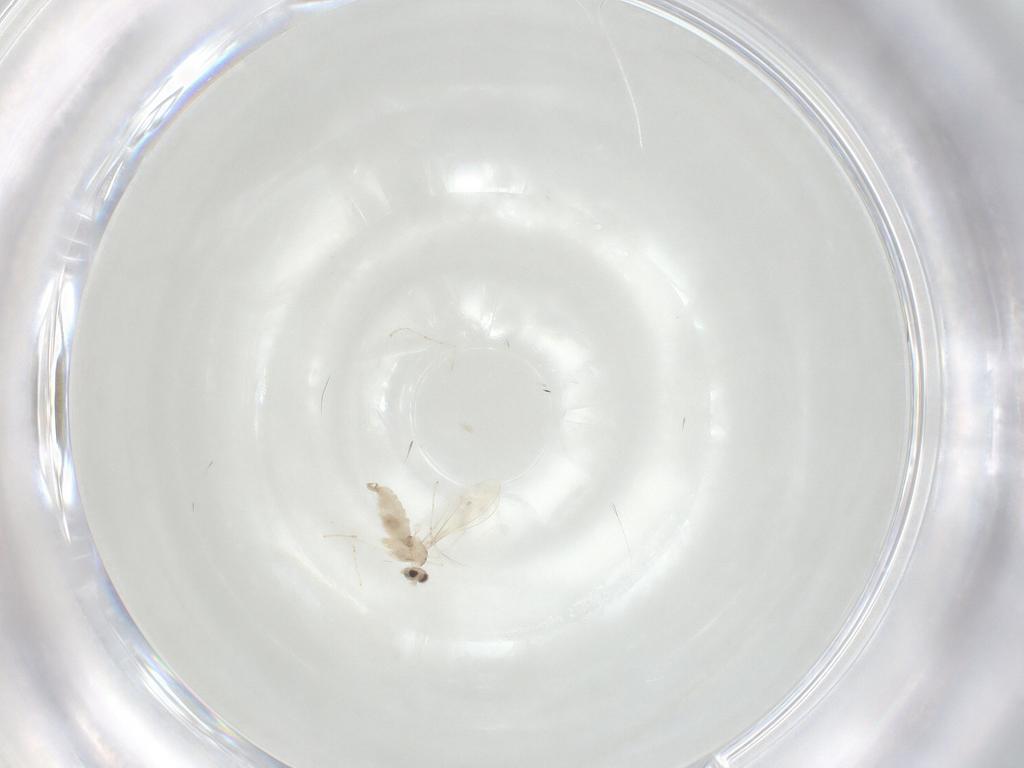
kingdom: Animalia
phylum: Arthropoda
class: Insecta
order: Diptera
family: Cecidomyiidae
